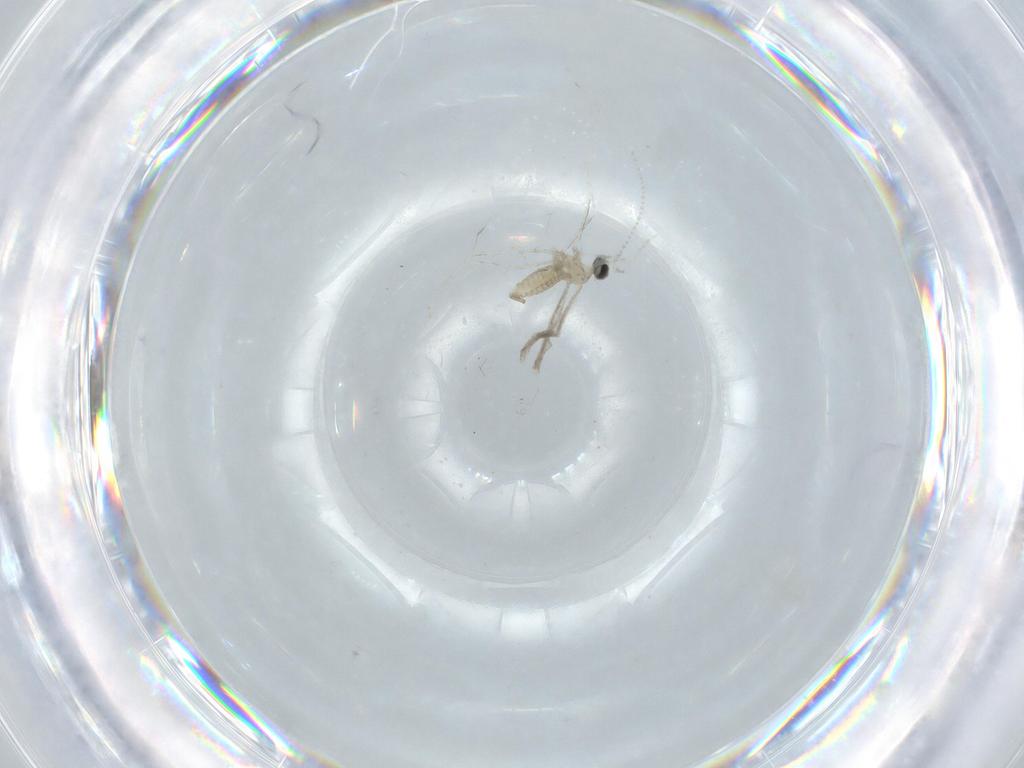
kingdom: Animalia
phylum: Arthropoda
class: Insecta
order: Diptera
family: Cecidomyiidae
